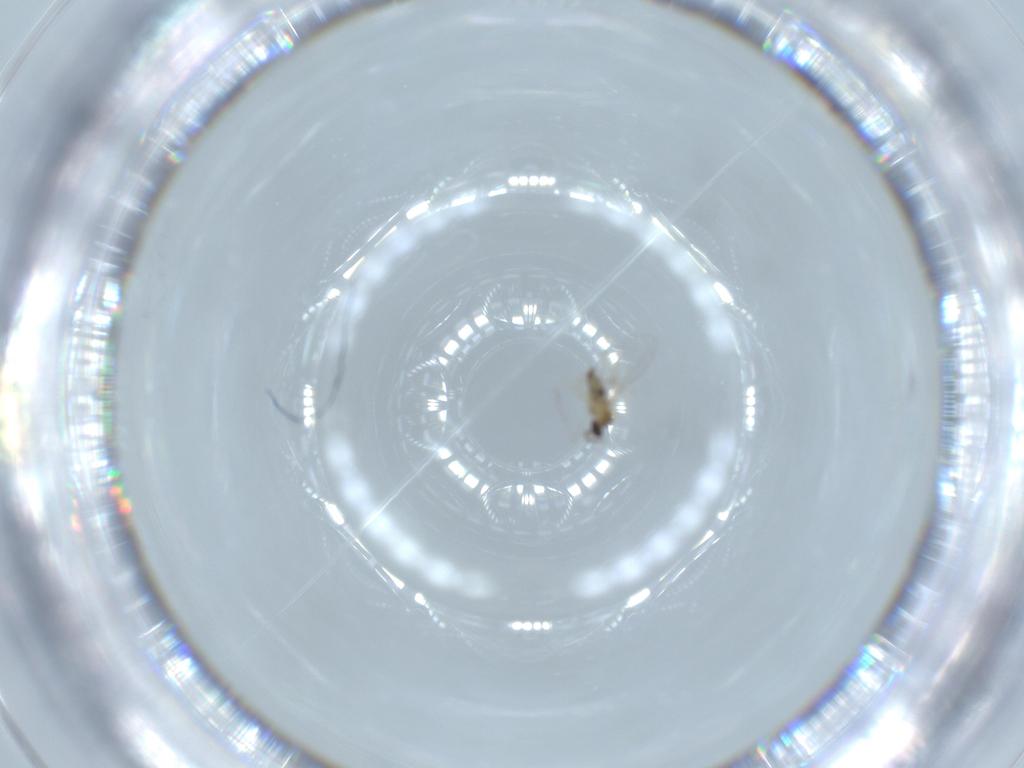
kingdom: Animalia
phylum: Arthropoda
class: Insecta
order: Diptera
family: Cecidomyiidae
